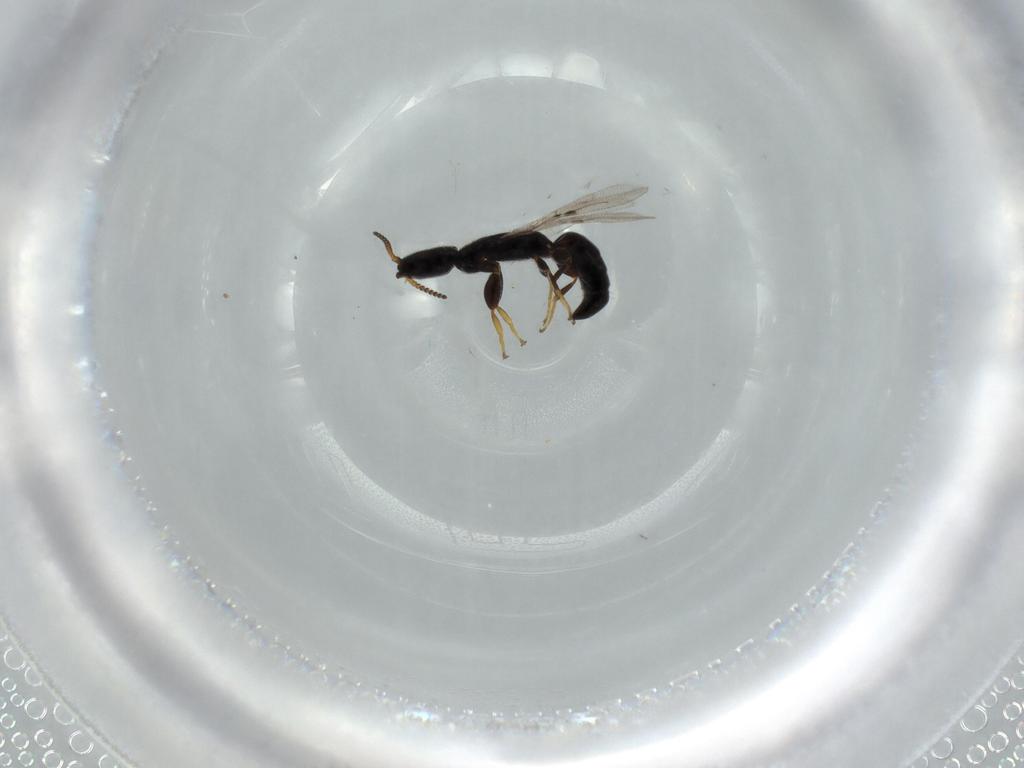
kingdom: Animalia
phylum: Arthropoda
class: Insecta
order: Hymenoptera
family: Bethylidae
